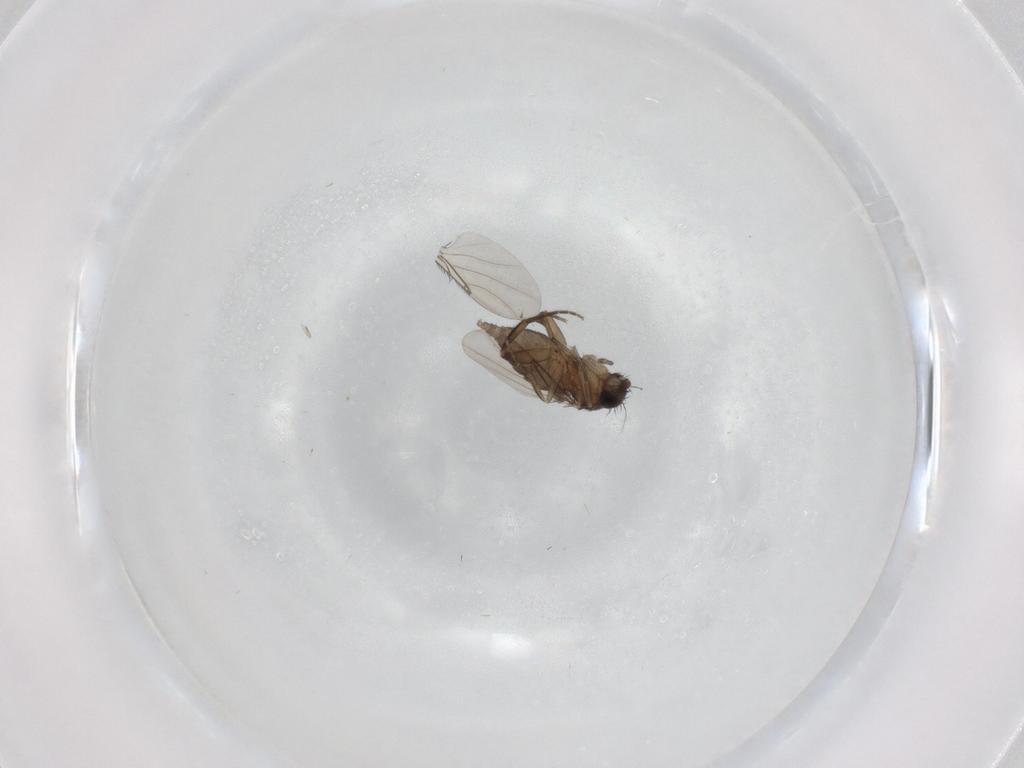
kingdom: Animalia
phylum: Arthropoda
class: Insecta
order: Diptera
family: Phoridae
